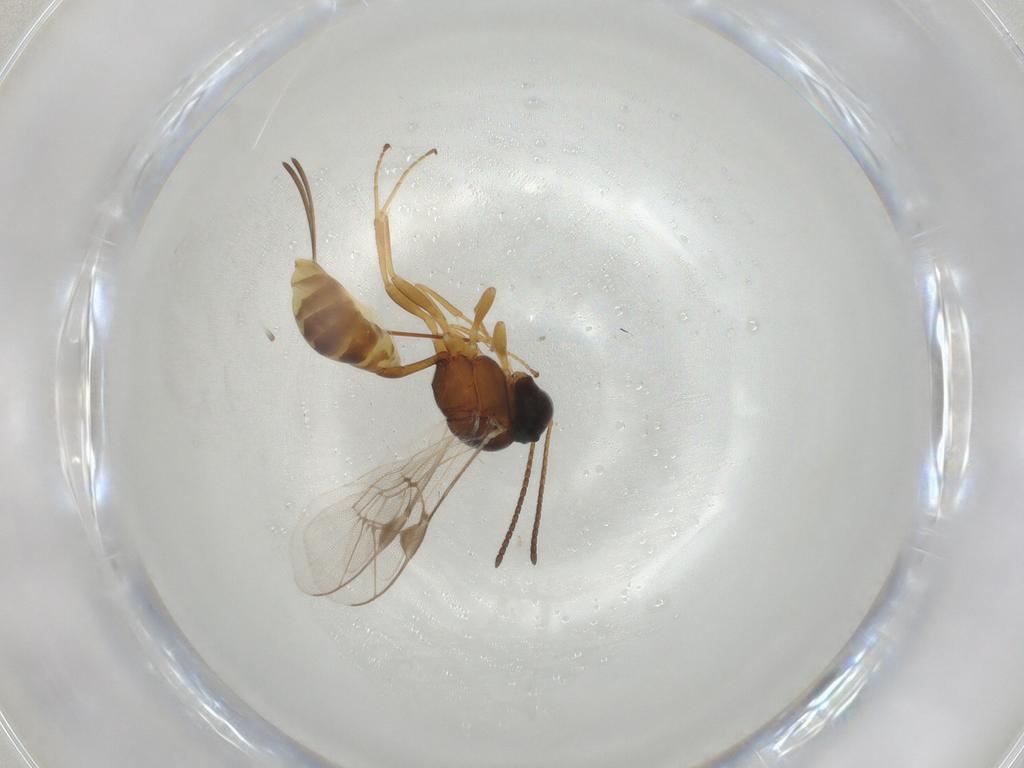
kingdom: Animalia
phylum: Arthropoda
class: Insecta
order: Hymenoptera
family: Ichneumonidae
